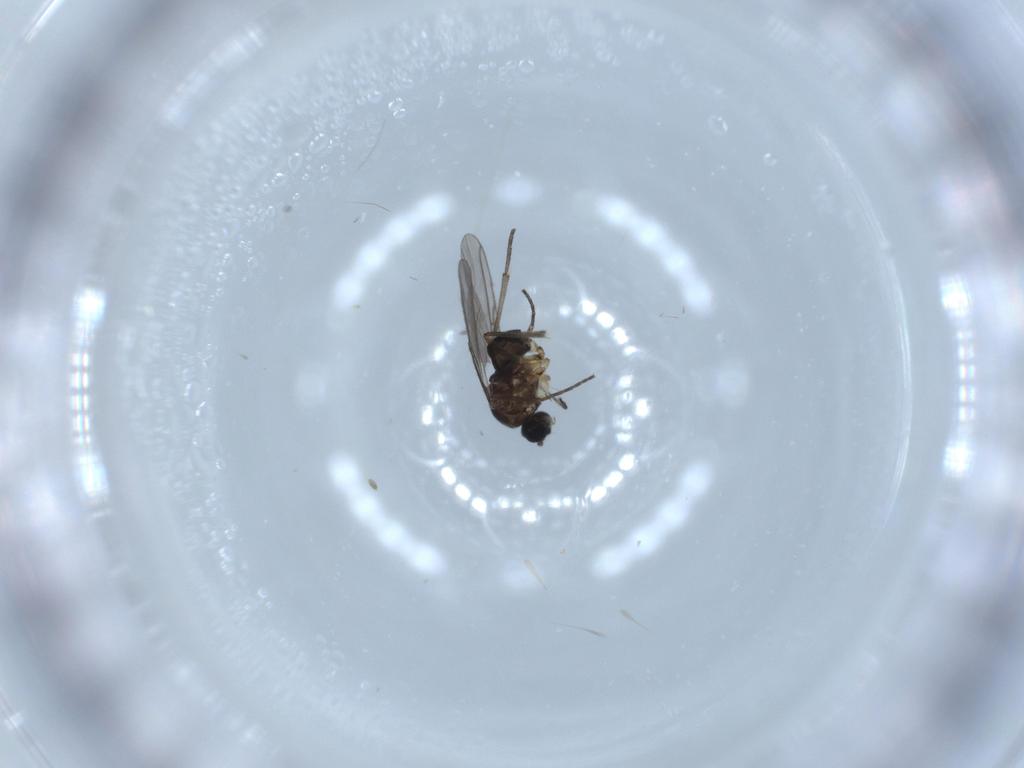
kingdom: Animalia
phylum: Arthropoda
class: Insecta
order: Diptera
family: Sciaridae
